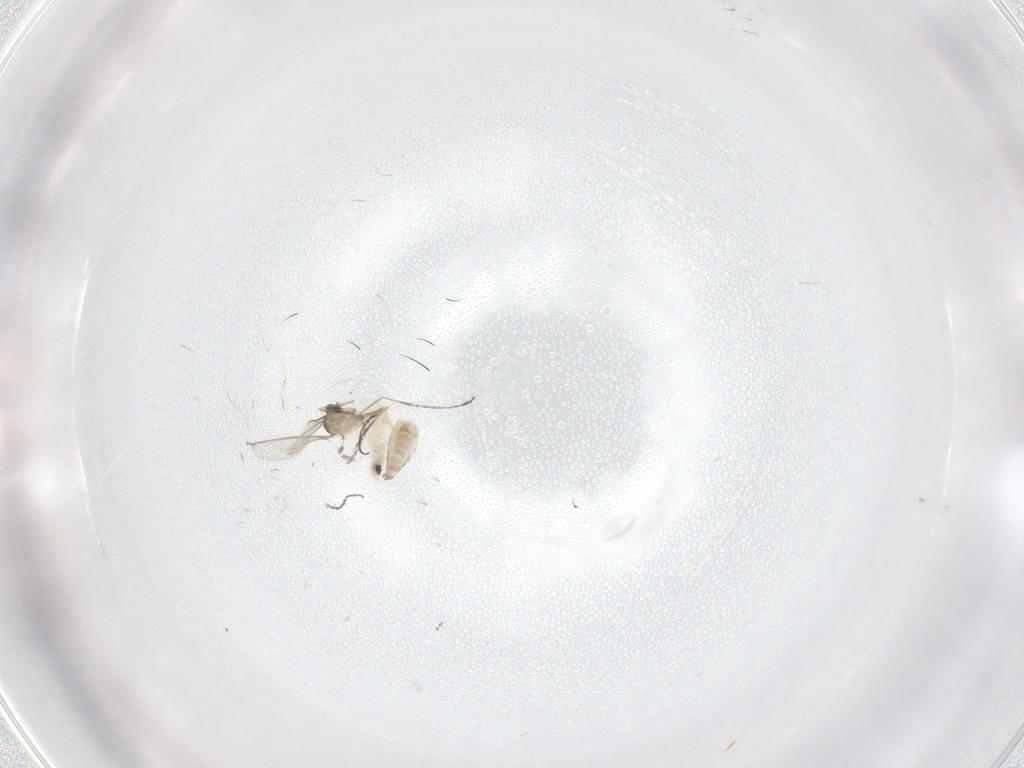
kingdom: Animalia
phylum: Arthropoda
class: Insecta
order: Diptera
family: Cecidomyiidae
